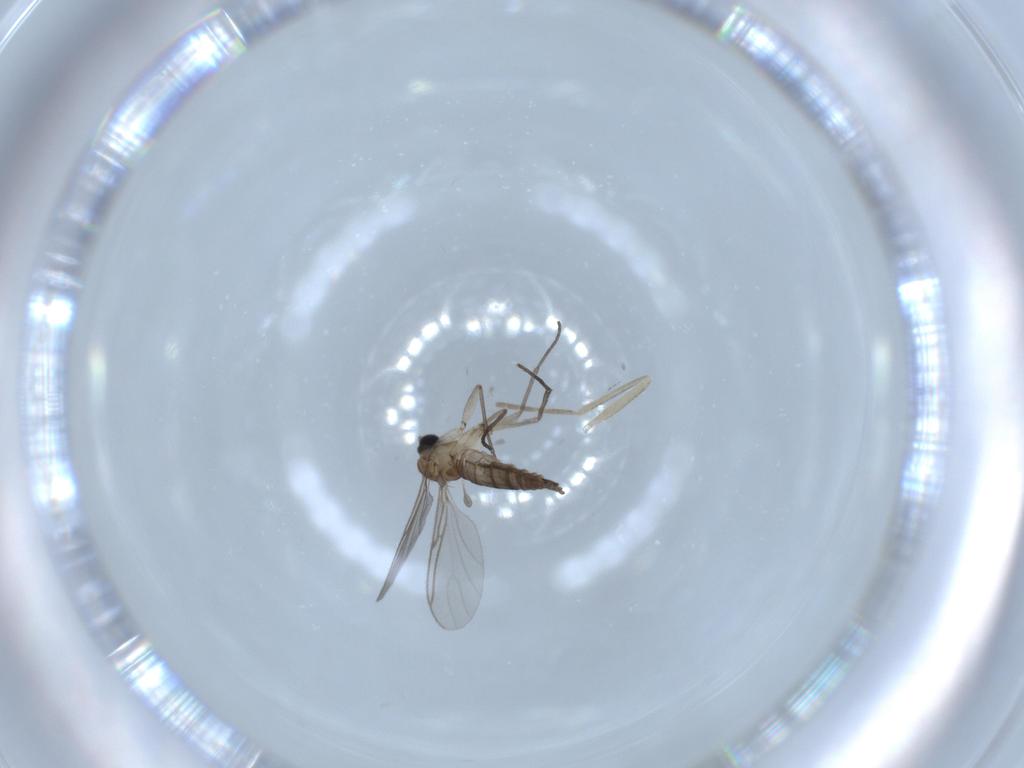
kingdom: Animalia
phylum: Arthropoda
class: Insecta
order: Diptera
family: Sciaridae
